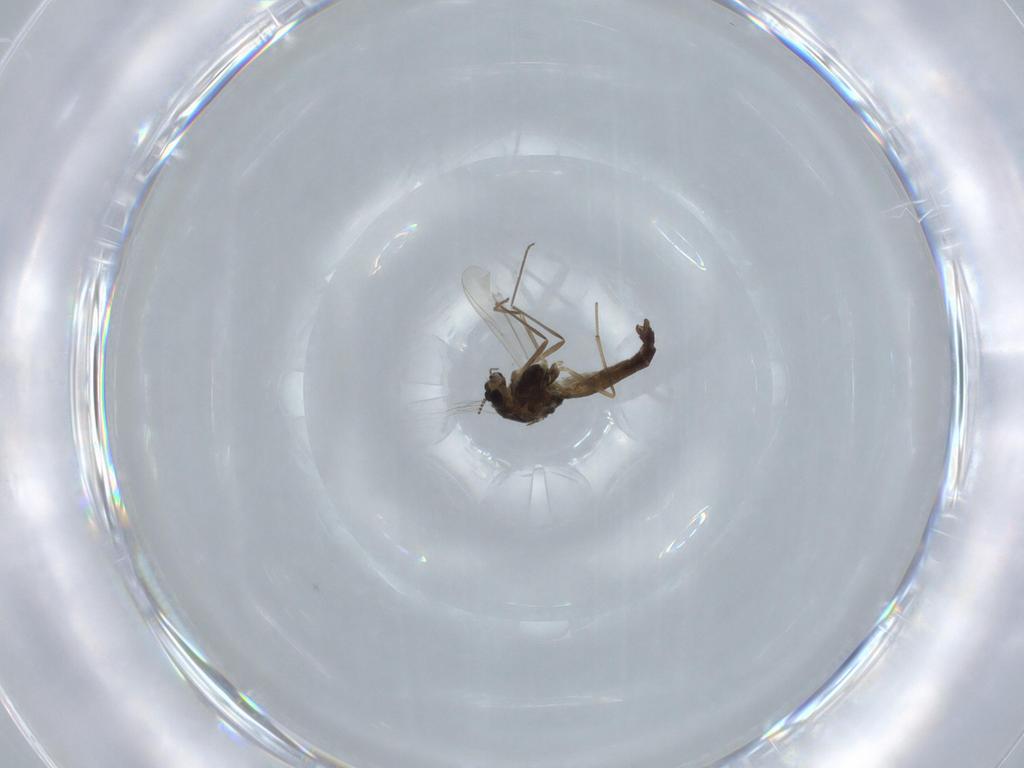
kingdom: Animalia
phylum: Arthropoda
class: Insecta
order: Diptera
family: Chironomidae
